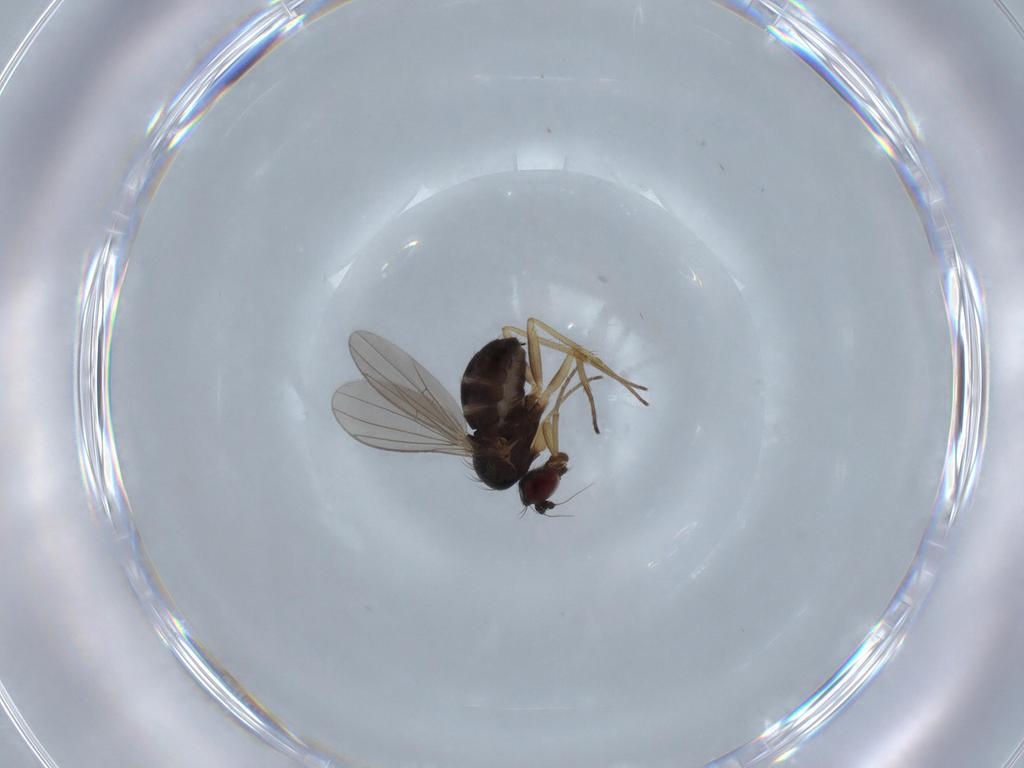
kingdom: Animalia
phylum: Arthropoda
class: Insecta
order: Diptera
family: Dolichopodidae
